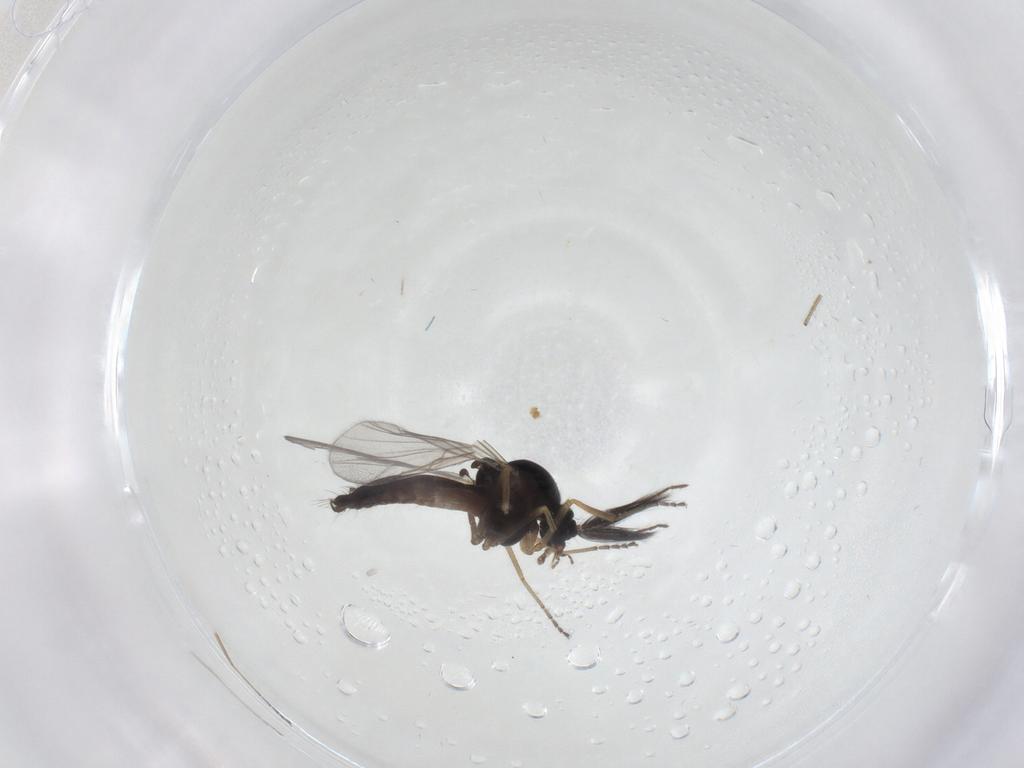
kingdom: Animalia
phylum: Arthropoda
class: Insecta
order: Diptera
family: Ceratopogonidae
